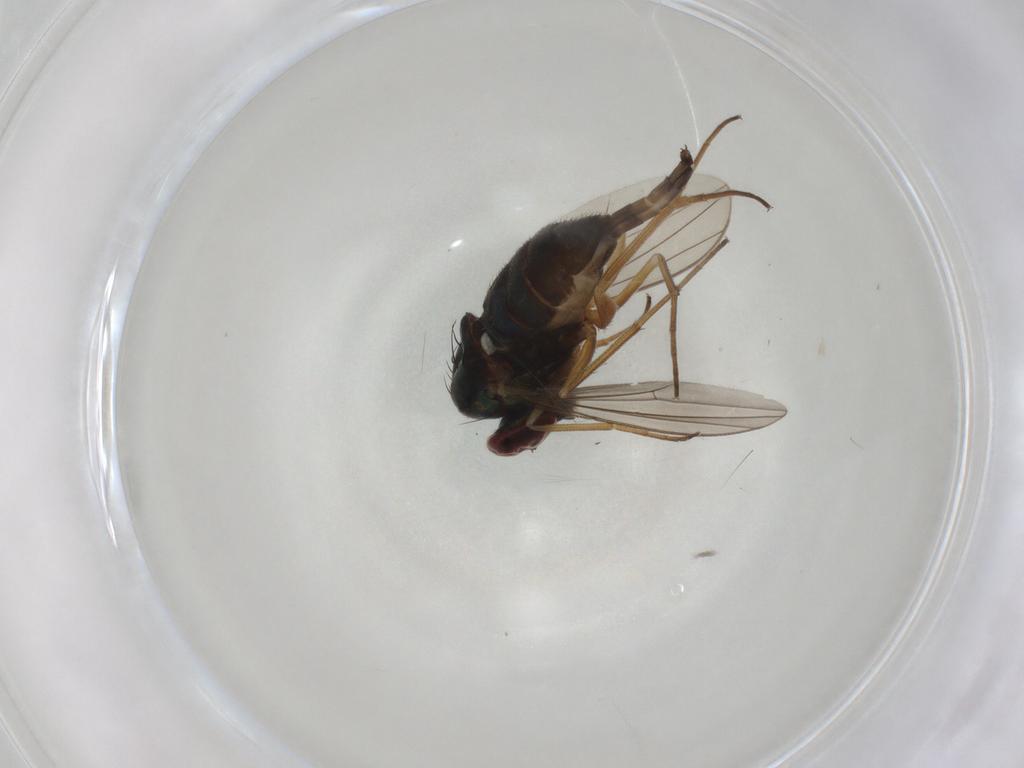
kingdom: Animalia
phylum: Arthropoda
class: Insecta
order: Diptera
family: Dolichopodidae
